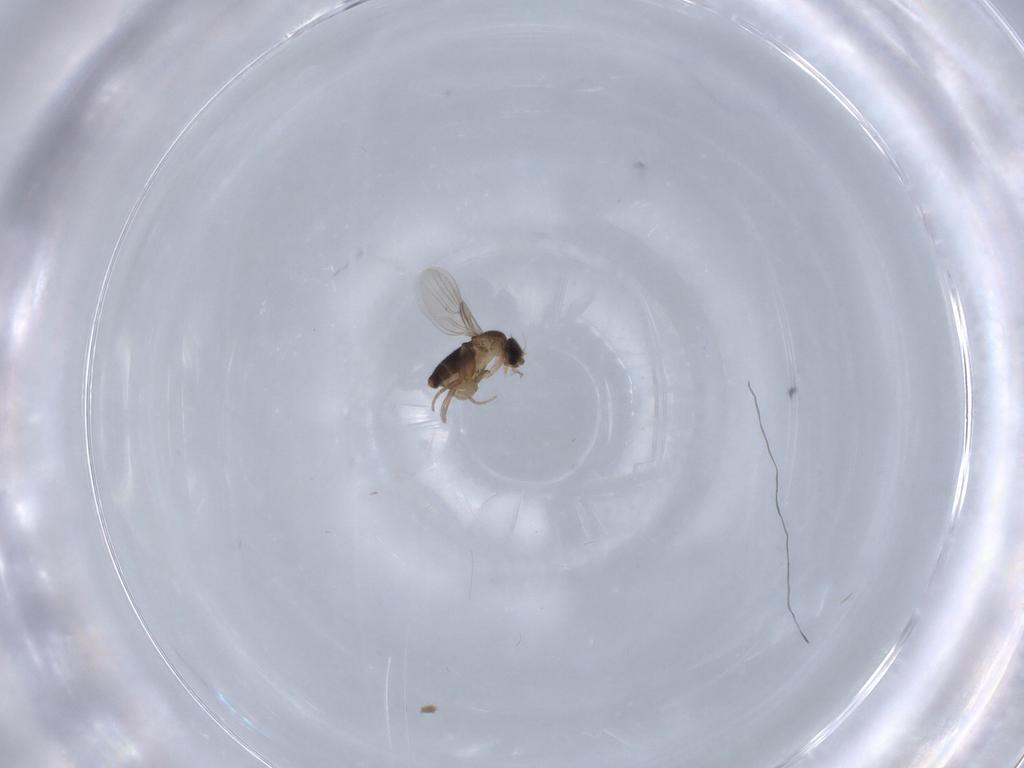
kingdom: Animalia
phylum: Arthropoda
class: Insecta
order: Diptera
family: Phoridae
